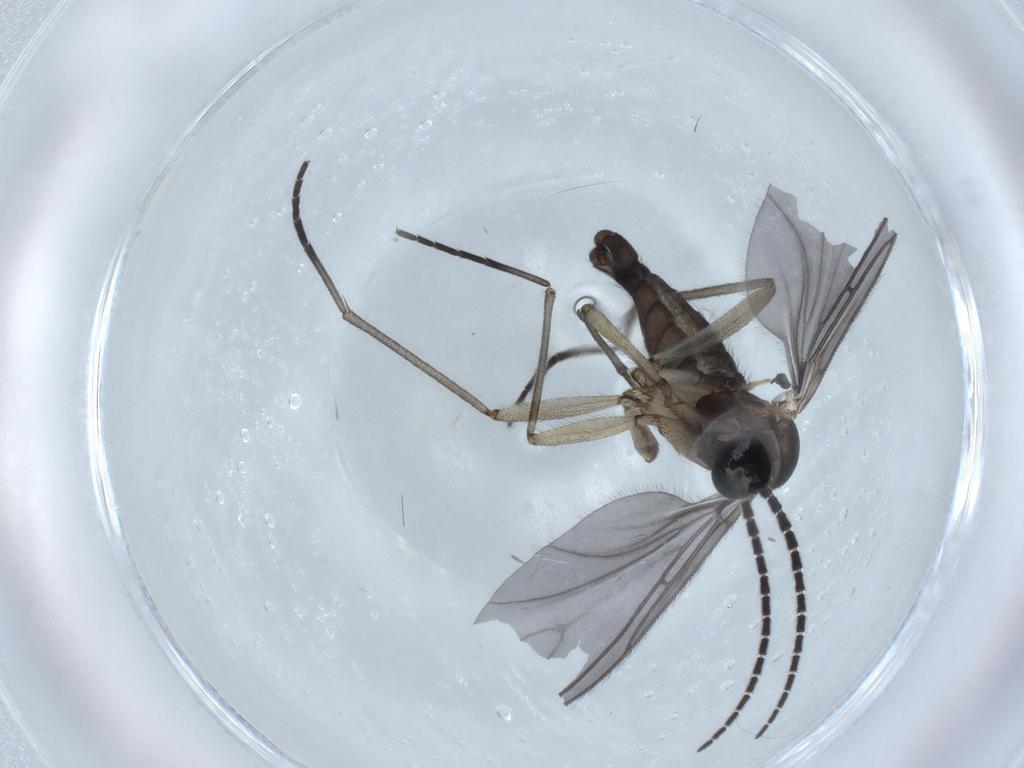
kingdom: Animalia
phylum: Arthropoda
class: Insecta
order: Diptera
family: Sciaridae
